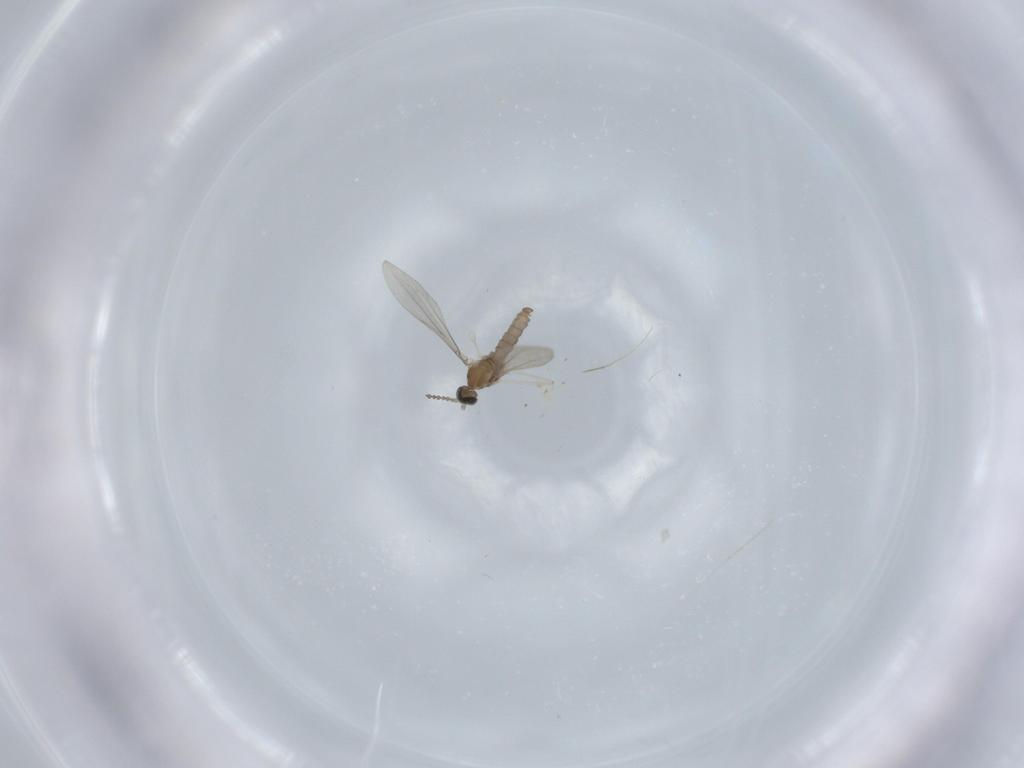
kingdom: Animalia
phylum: Arthropoda
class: Insecta
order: Diptera
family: Cecidomyiidae
